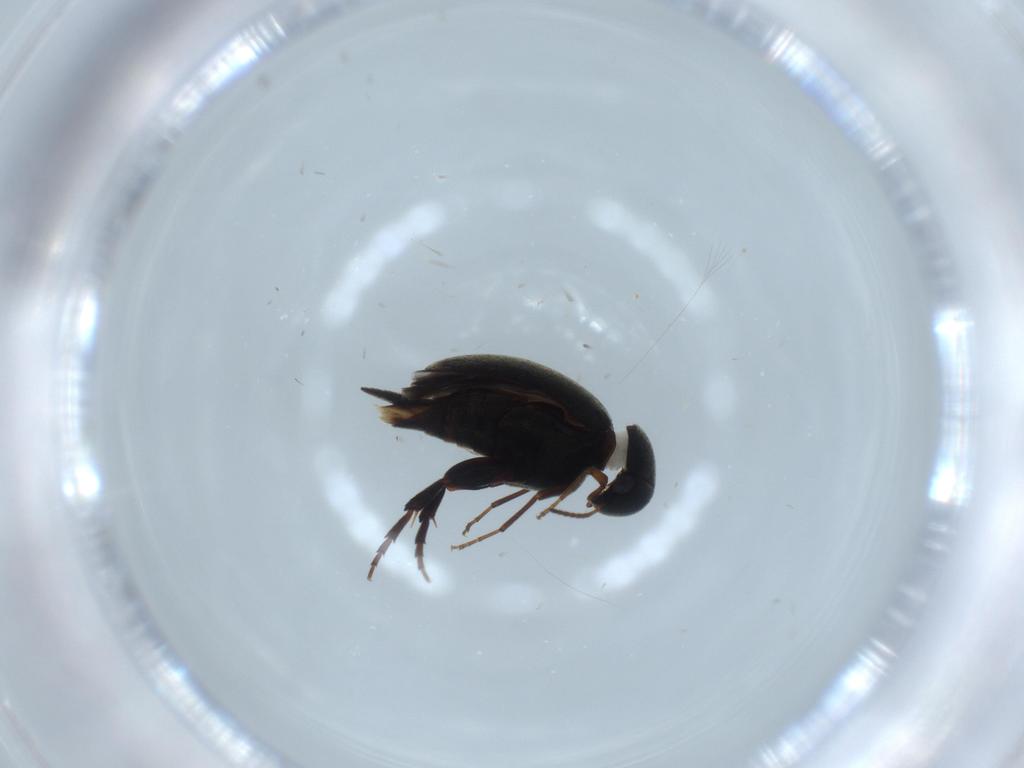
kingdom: Animalia
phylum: Arthropoda
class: Insecta
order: Coleoptera
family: Mordellidae
